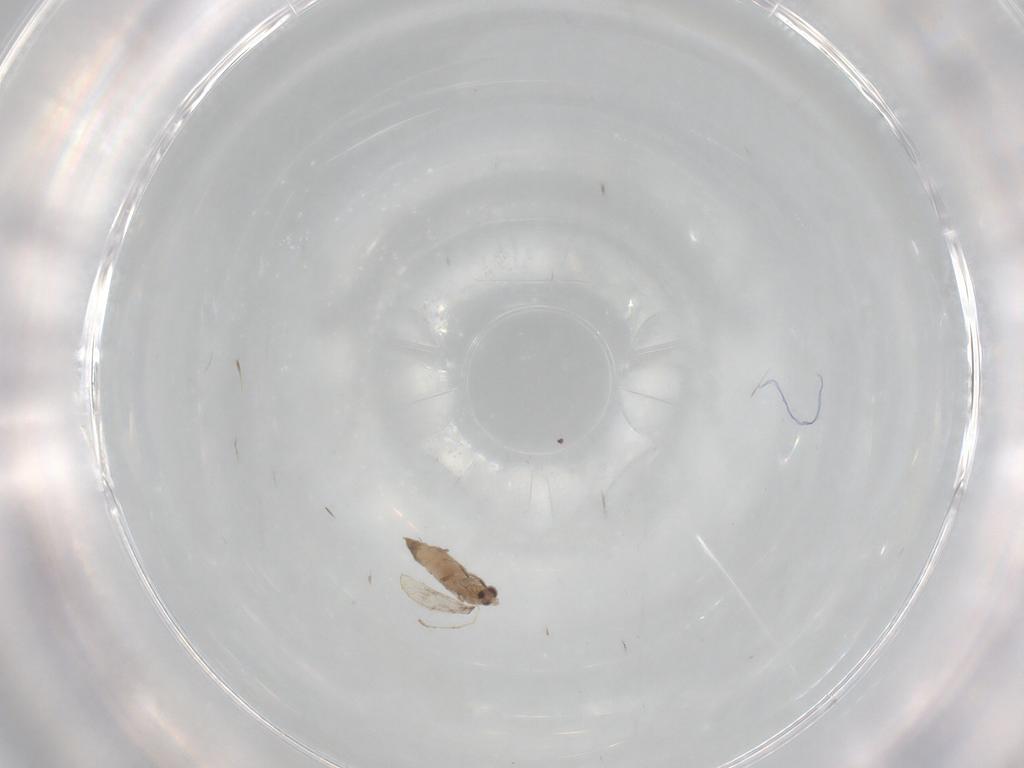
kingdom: Animalia
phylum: Arthropoda
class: Insecta
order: Diptera
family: Cecidomyiidae
